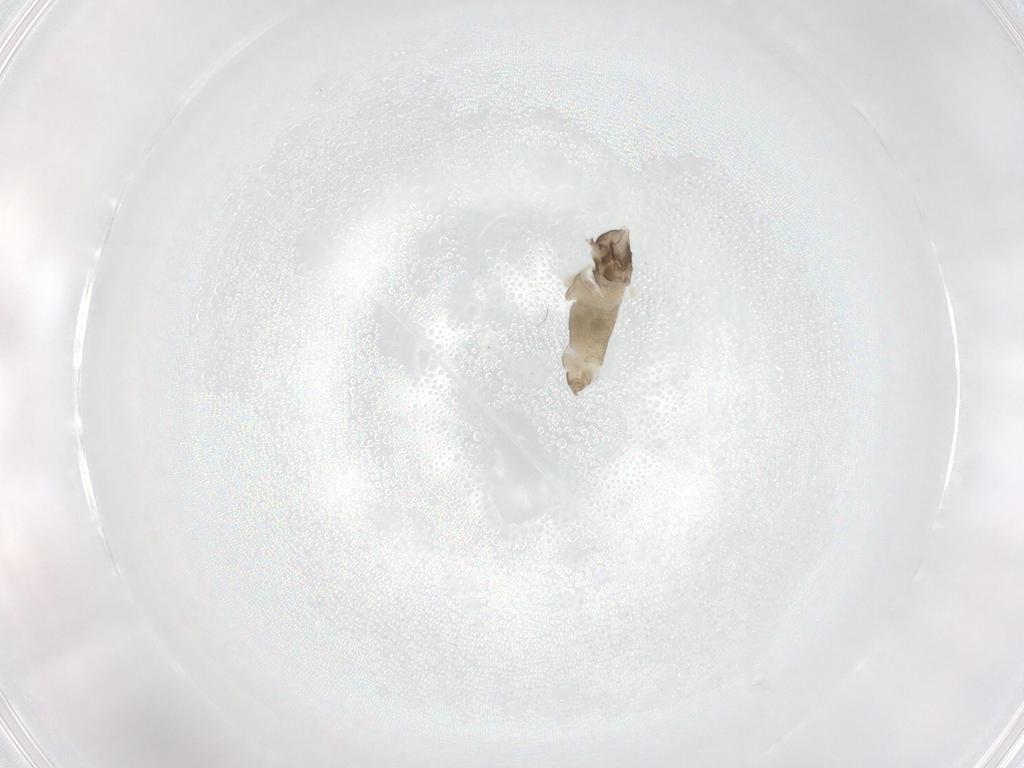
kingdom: Animalia
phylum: Arthropoda
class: Insecta
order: Diptera
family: Cecidomyiidae
